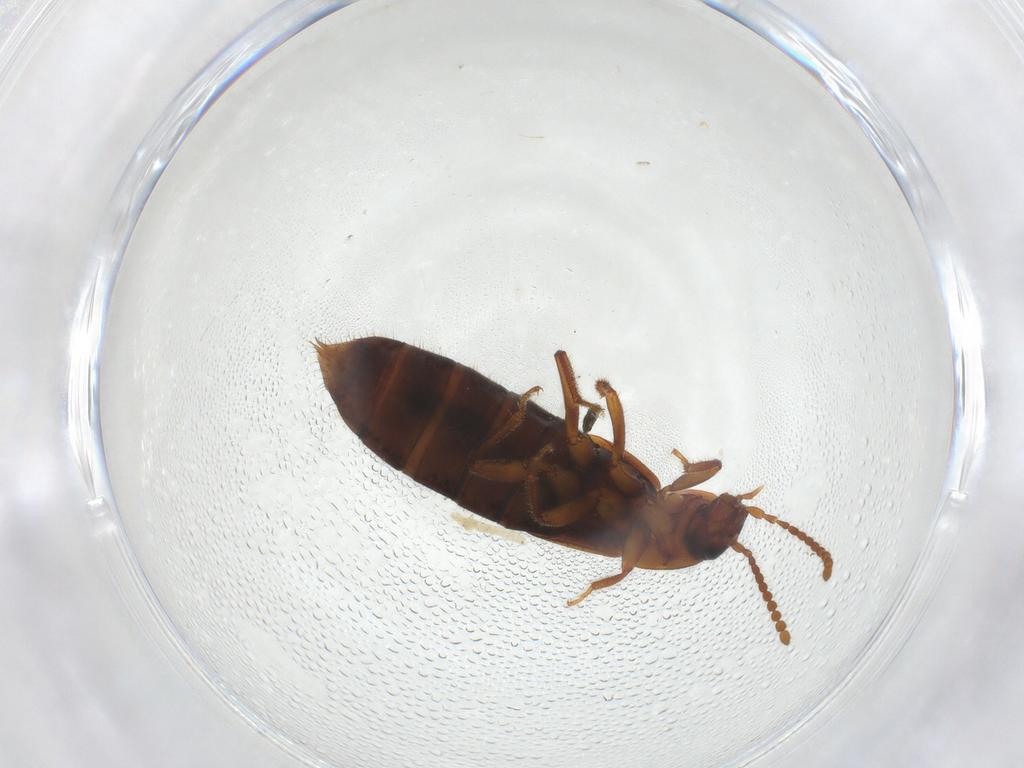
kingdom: Animalia
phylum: Arthropoda
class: Insecta
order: Coleoptera
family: Staphylinidae
